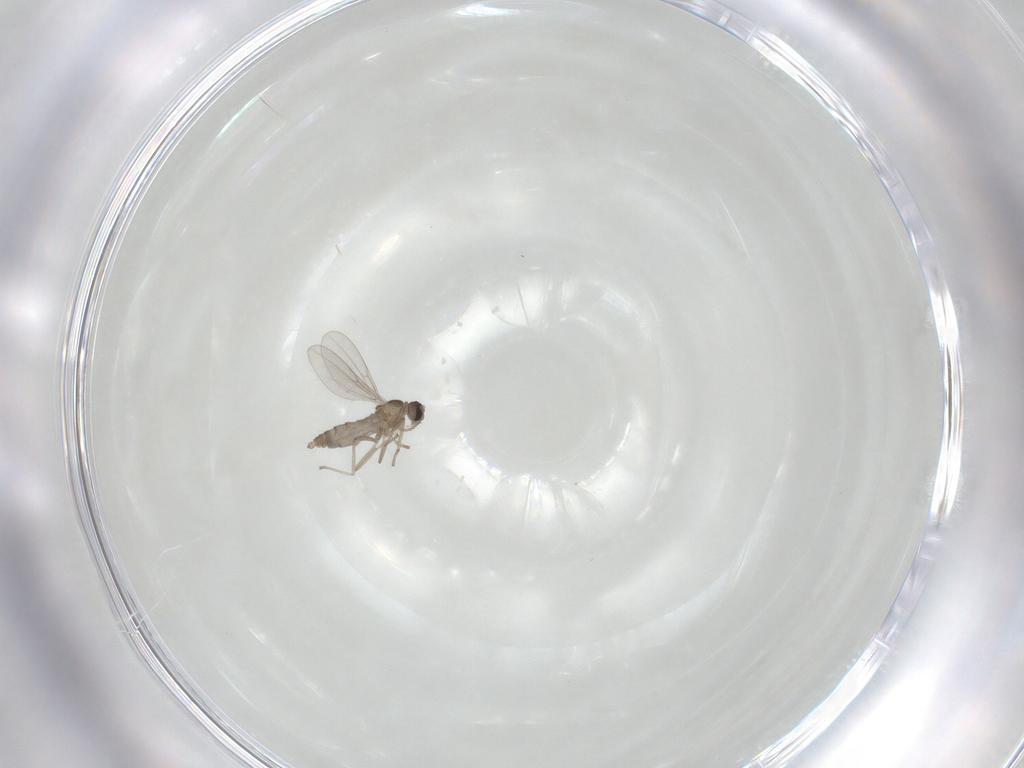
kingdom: Animalia
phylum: Arthropoda
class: Insecta
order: Diptera
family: Cecidomyiidae
